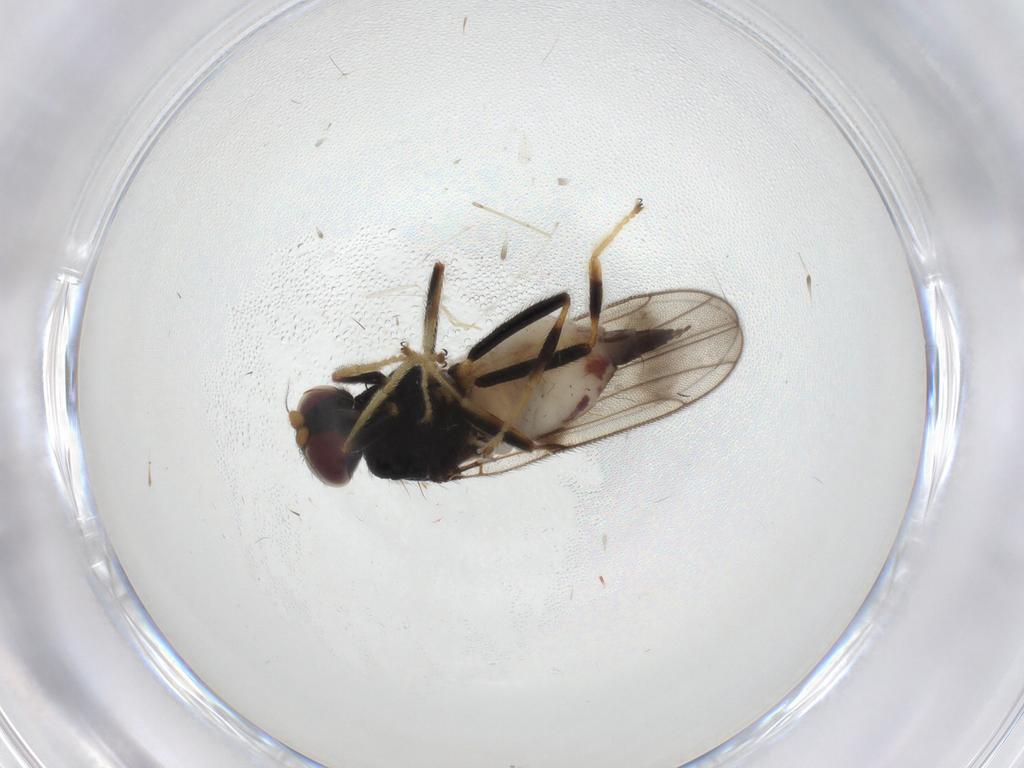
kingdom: Animalia
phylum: Arthropoda
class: Insecta
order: Diptera
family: Chloropidae
